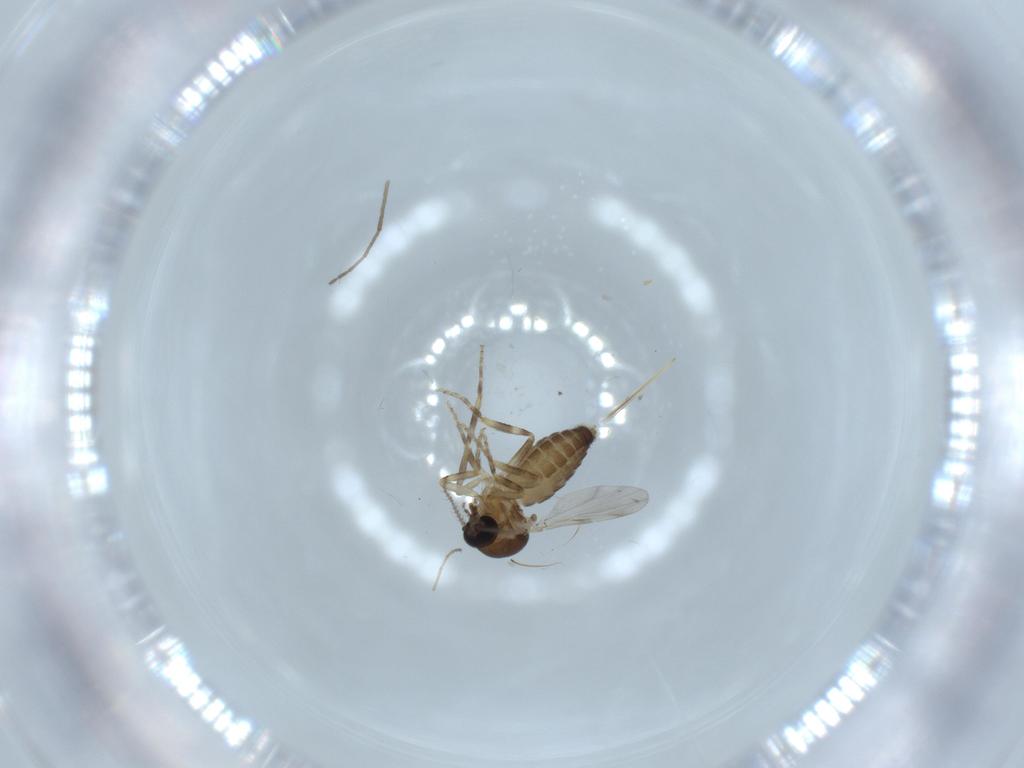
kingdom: Animalia
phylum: Arthropoda
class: Insecta
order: Diptera
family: Ceratopogonidae
